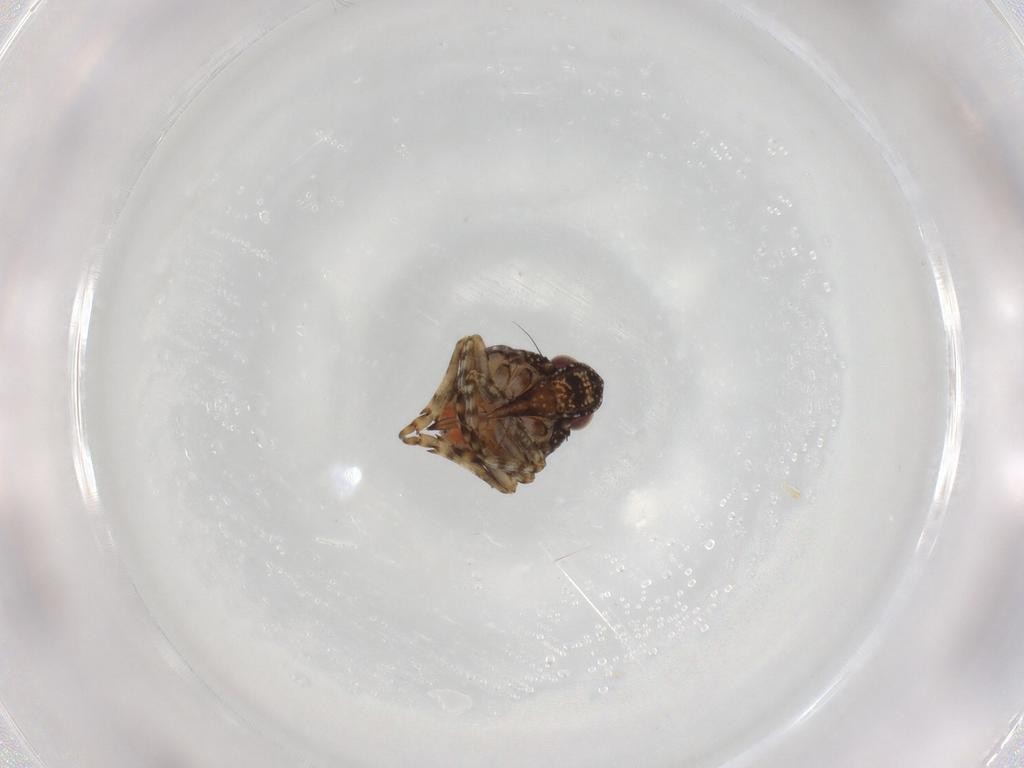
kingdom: Animalia
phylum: Arthropoda
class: Insecta
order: Hemiptera
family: Nogodinidae
